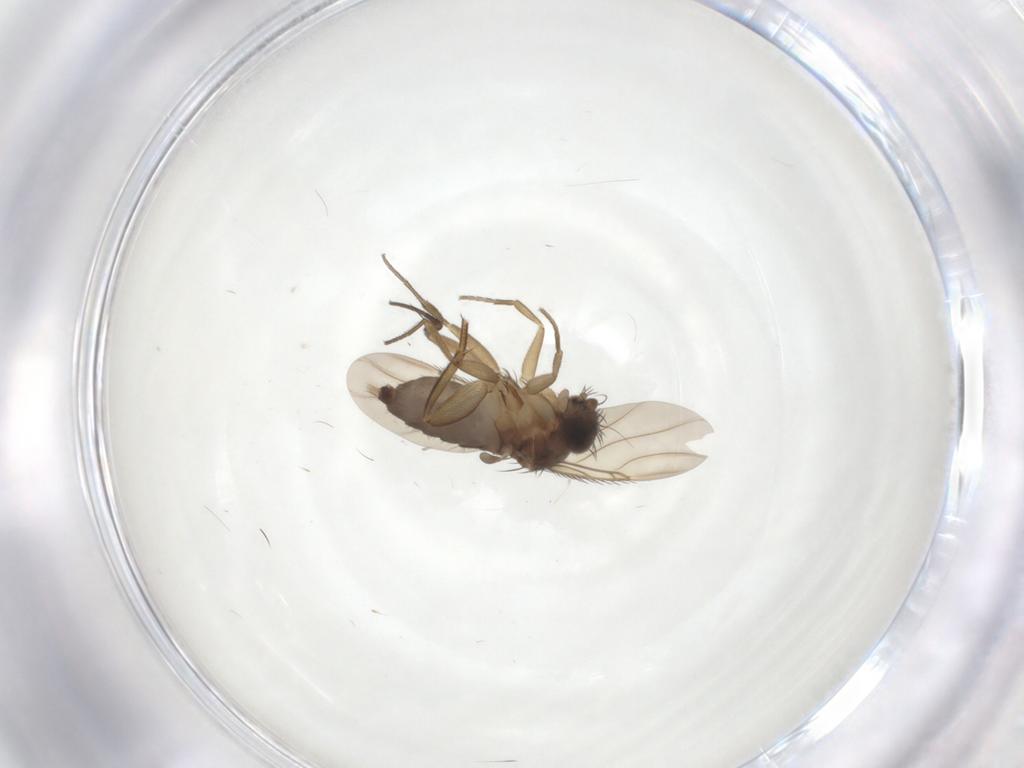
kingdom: Animalia
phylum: Arthropoda
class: Insecta
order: Diptera
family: Phoridae
